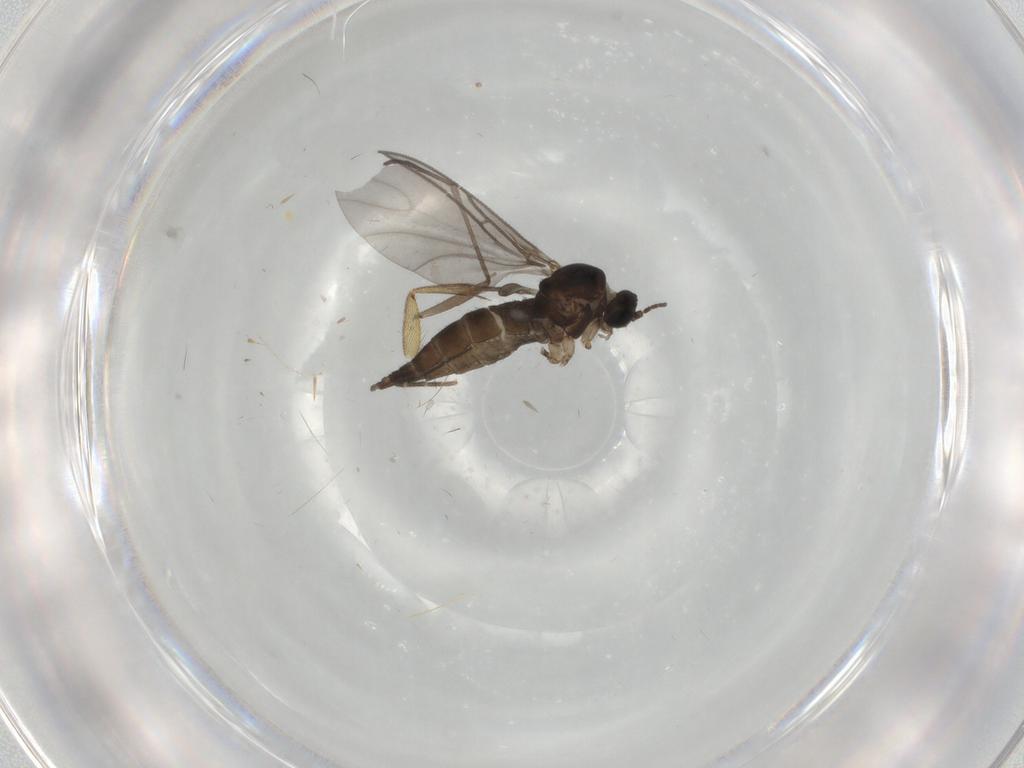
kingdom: Animalia
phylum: Arthropoda
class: Insecta
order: Diptera
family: Sciaridae
